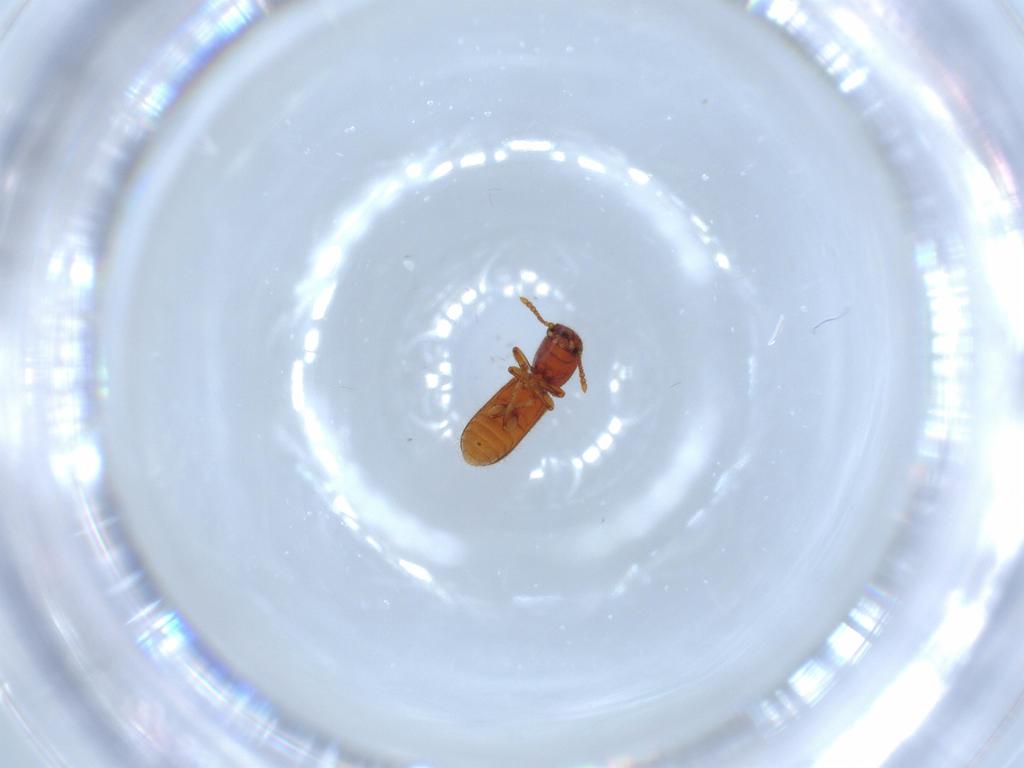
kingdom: Animalia
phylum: Arthropoda
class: Insecta
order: Coleoptera
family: Thanerocleridae
